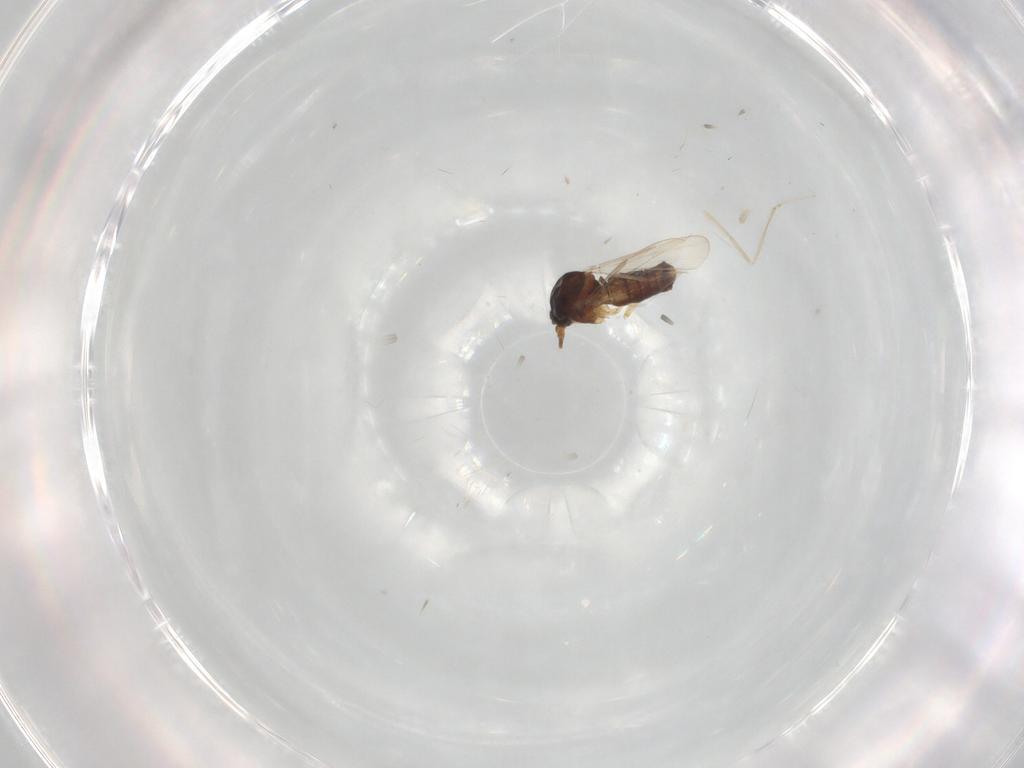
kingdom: Animalia
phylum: Arthropoda
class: Insecta
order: Diptera
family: Ceratopogonidae
